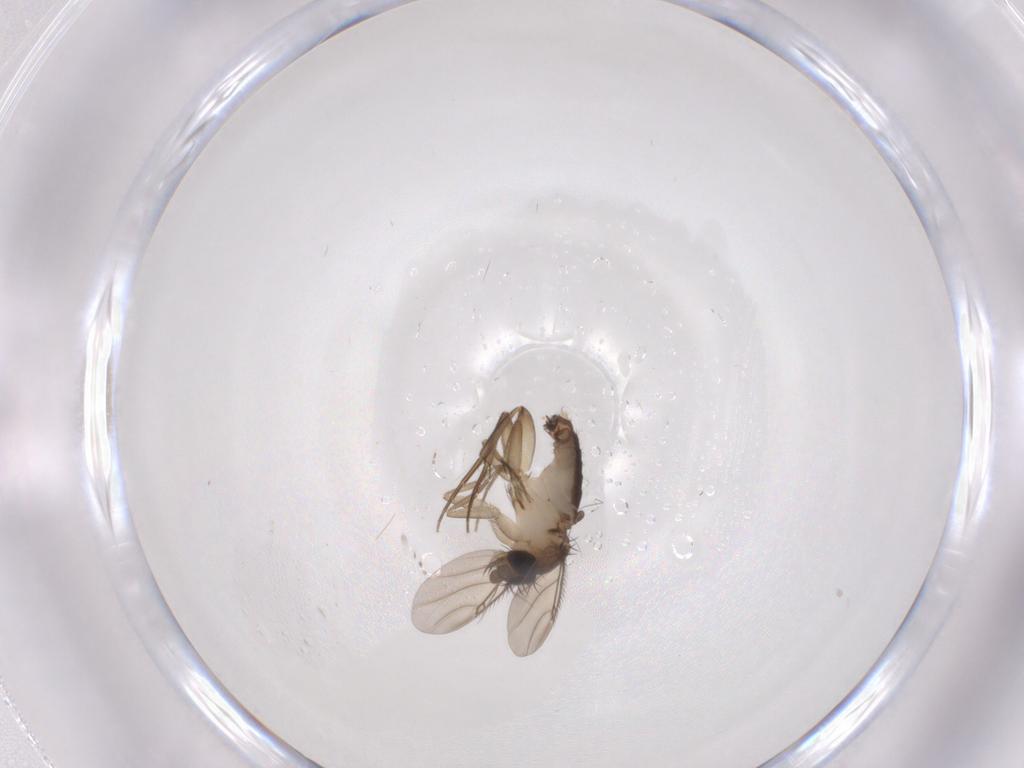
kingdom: Animalia
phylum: Arthropoda
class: Insecta
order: Diptera
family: Phoridae
